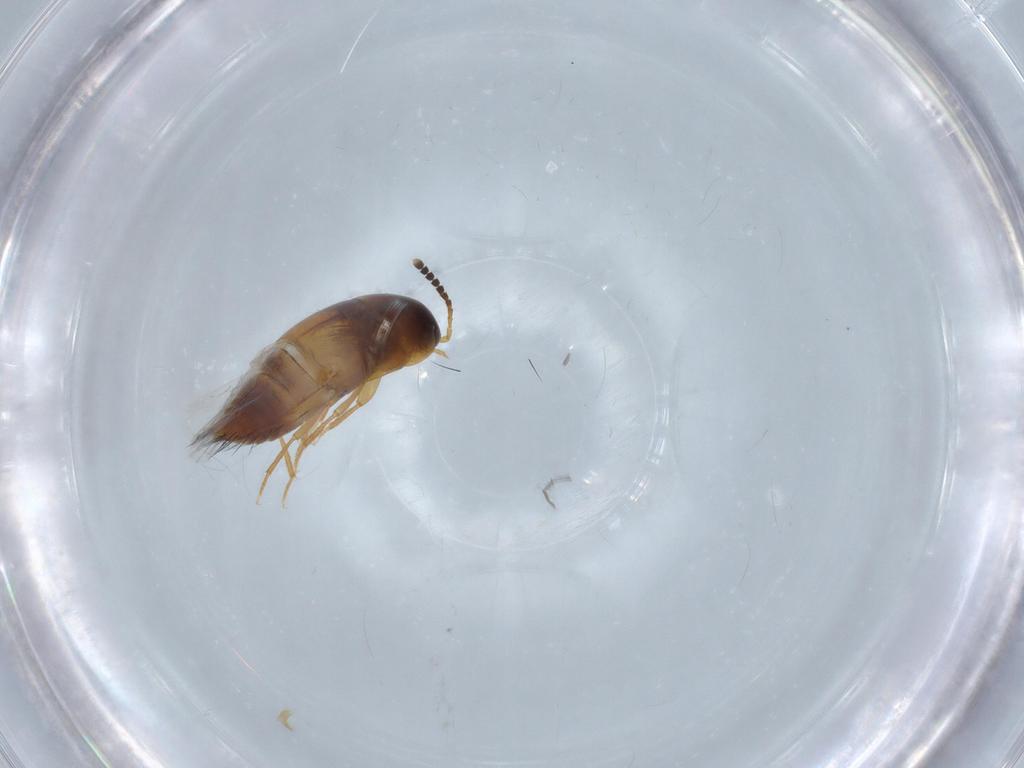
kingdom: Animalia
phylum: Arthropoda
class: Insecta
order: Coleoptera
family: Staphylinidae
